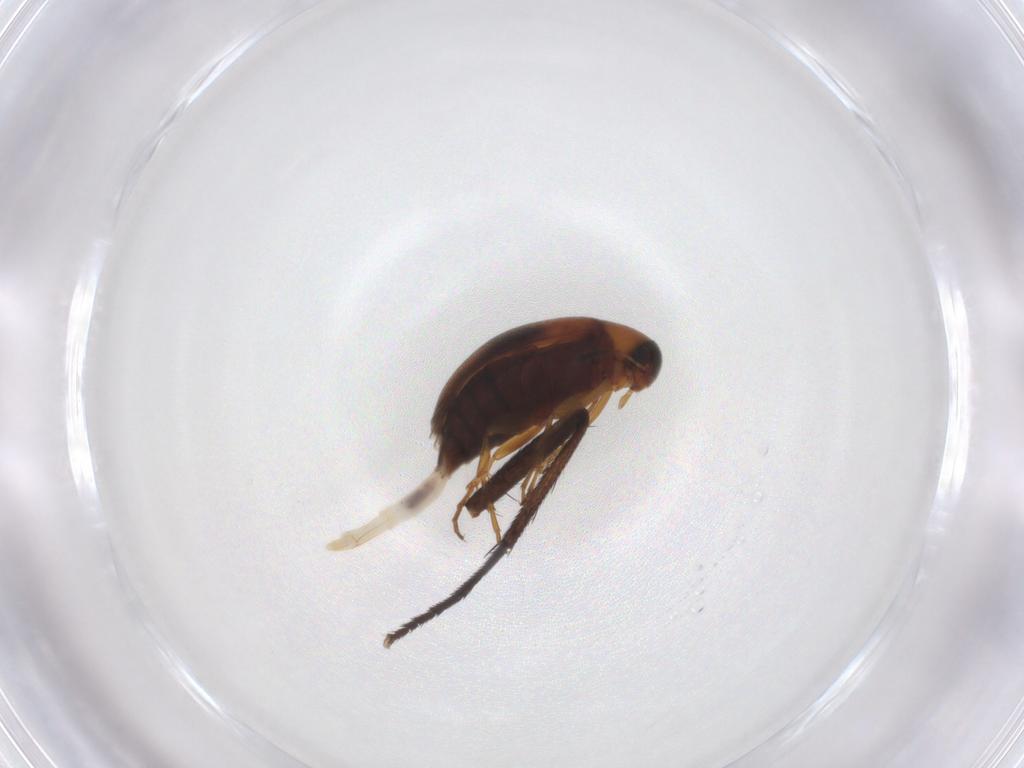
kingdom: Animalia
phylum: Arthropoda
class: Insecta
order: Coleoptera
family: Scraptiidae
